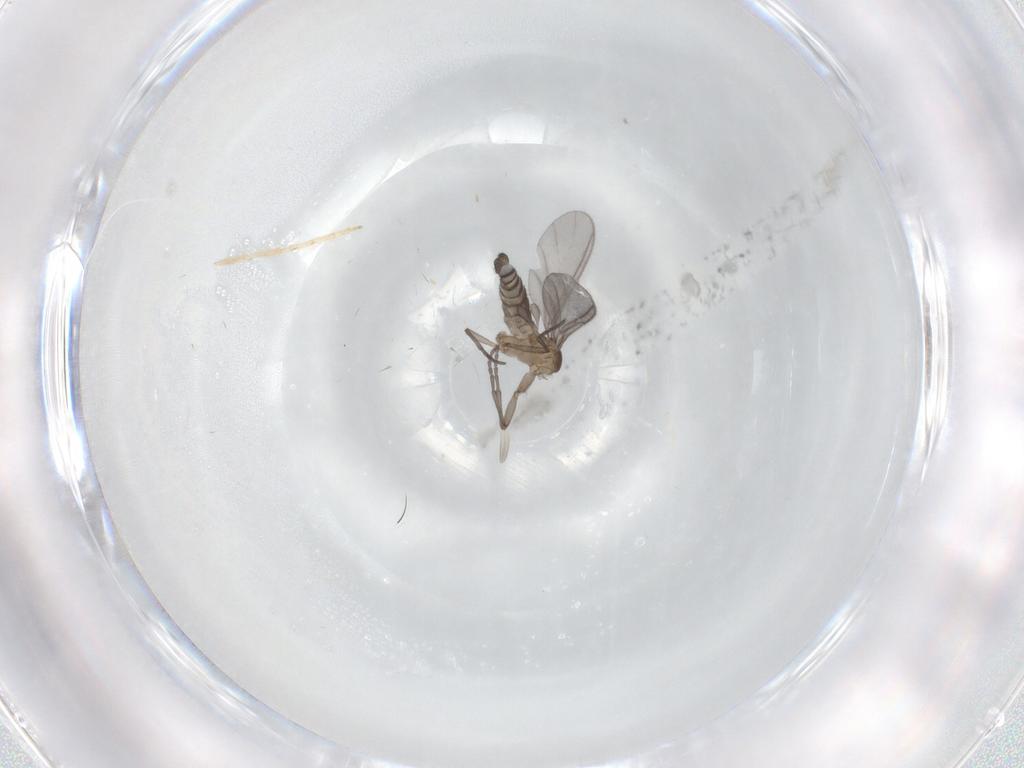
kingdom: Animalia
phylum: Arthropoda
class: Insecta
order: Diptera
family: Sciaridae
